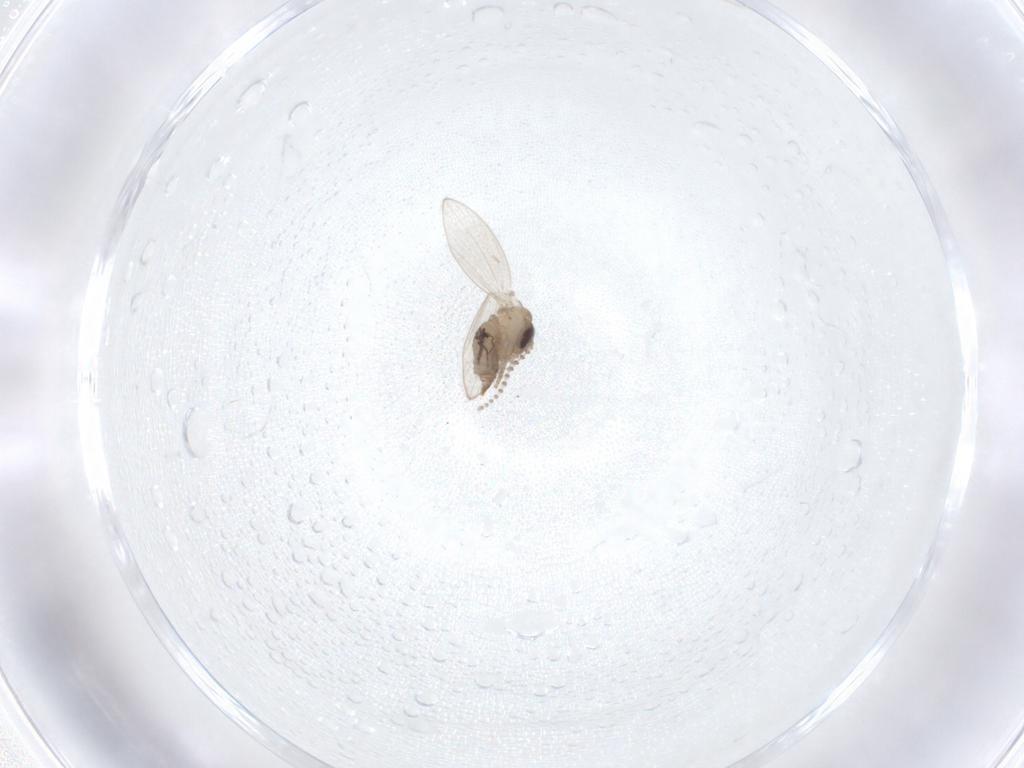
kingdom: Animalia
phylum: Arthropoda
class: Insecta
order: Diptera
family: Psychodidae
